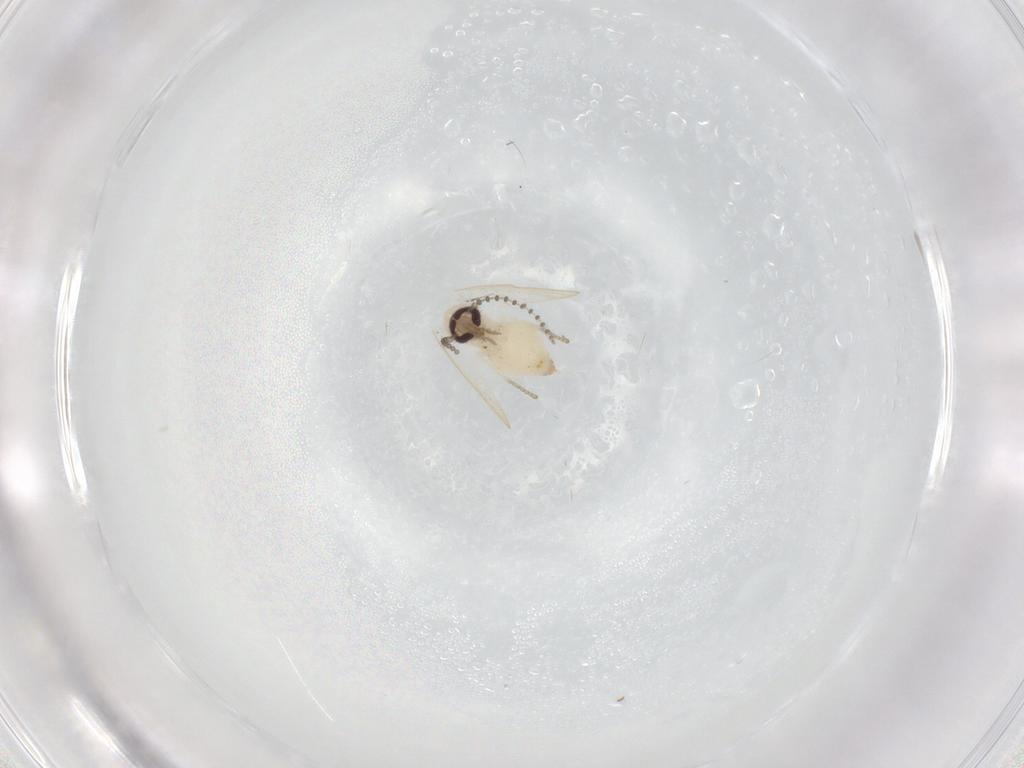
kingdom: Animalia
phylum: Arthropoda
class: Insecta
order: Diptera
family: Psychodidae
